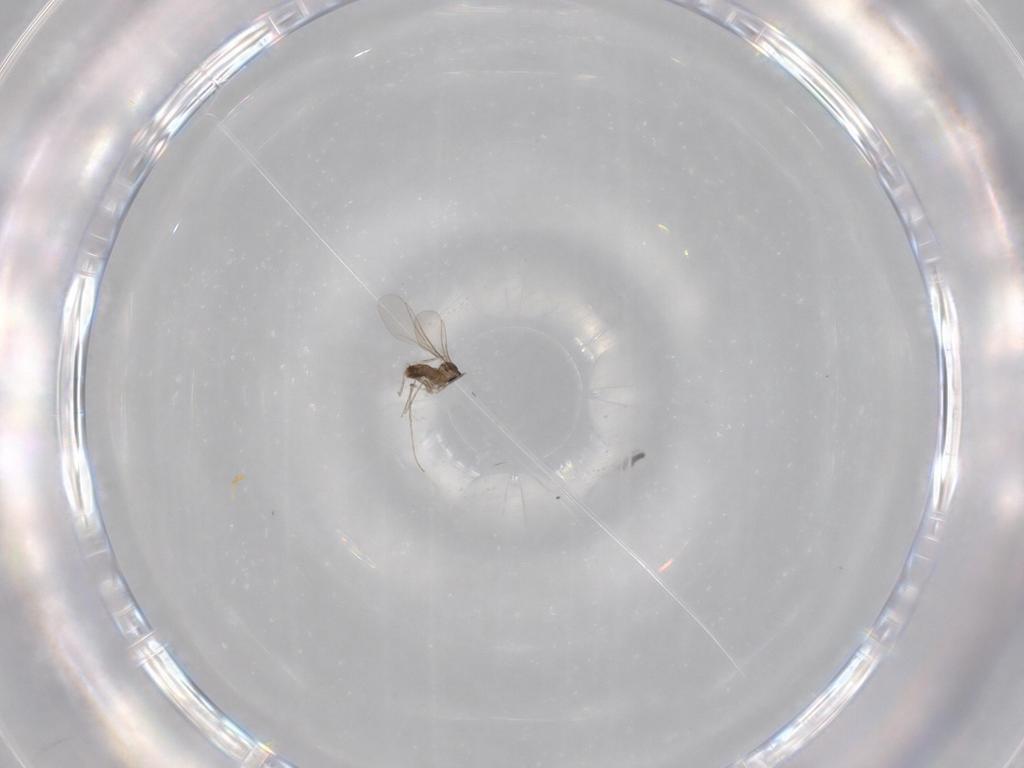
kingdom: Animalia
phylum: Arthropoda
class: Insecta
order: Diptera
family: Cecidomyiidae
